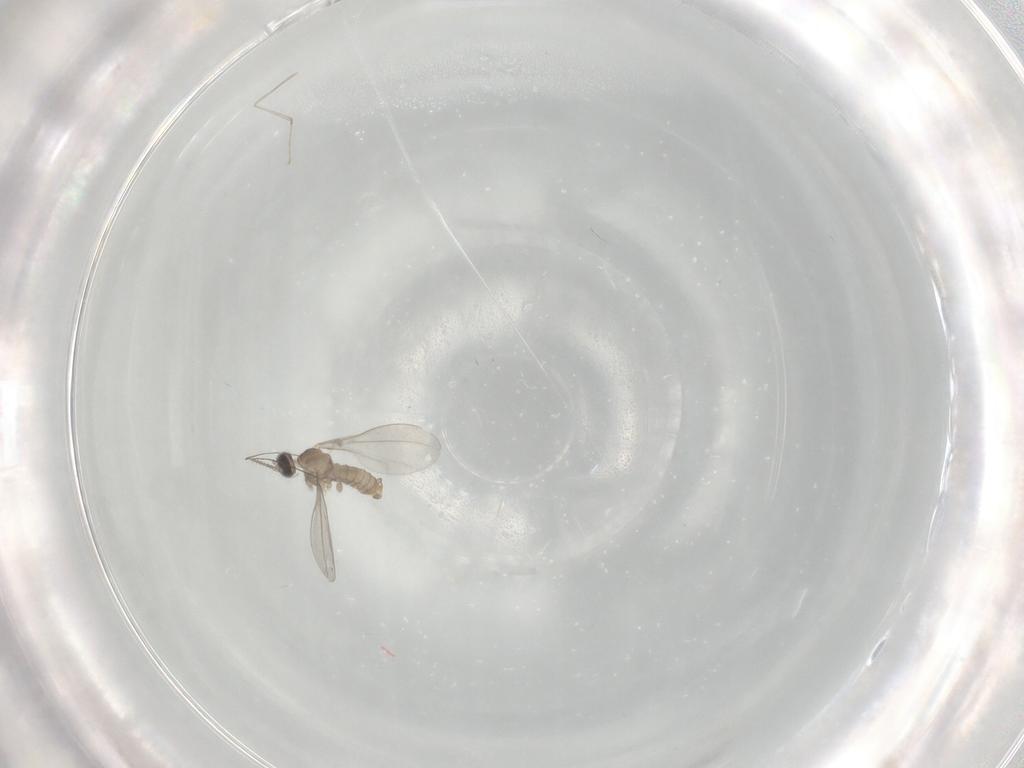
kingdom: Animalia
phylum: Arthropoda
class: Insecta
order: Diptera
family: Cecidomyiidae
